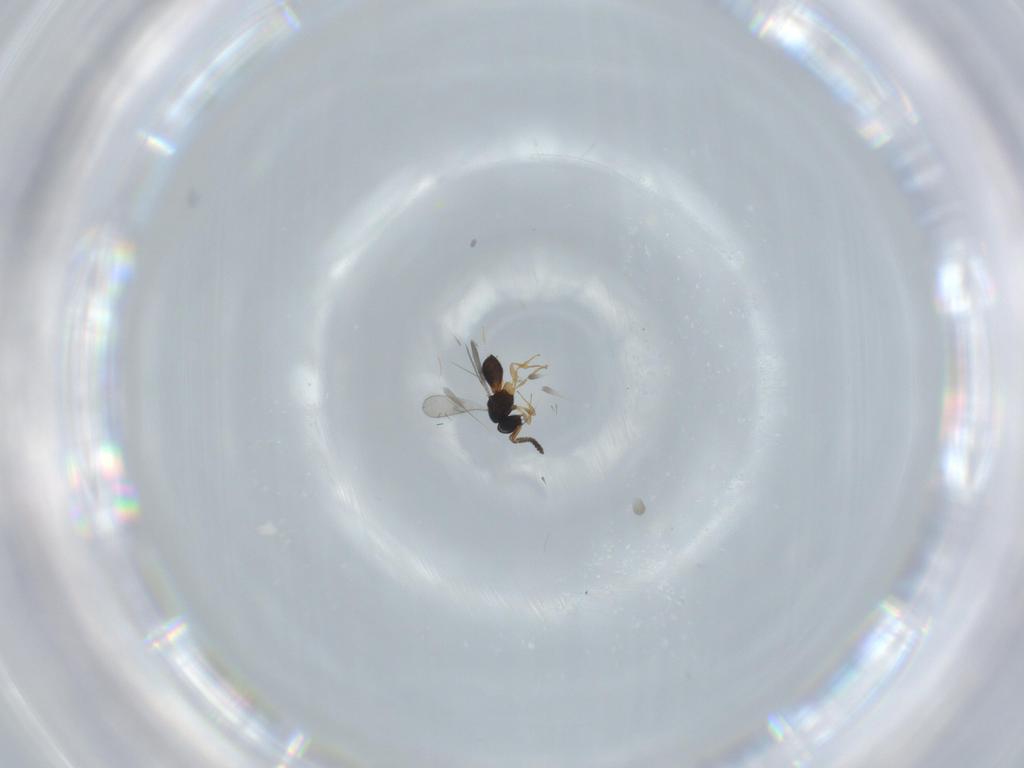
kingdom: Animalia
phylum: Arthropoda
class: Insecta
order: Hymenoptera
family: Scelionidae
